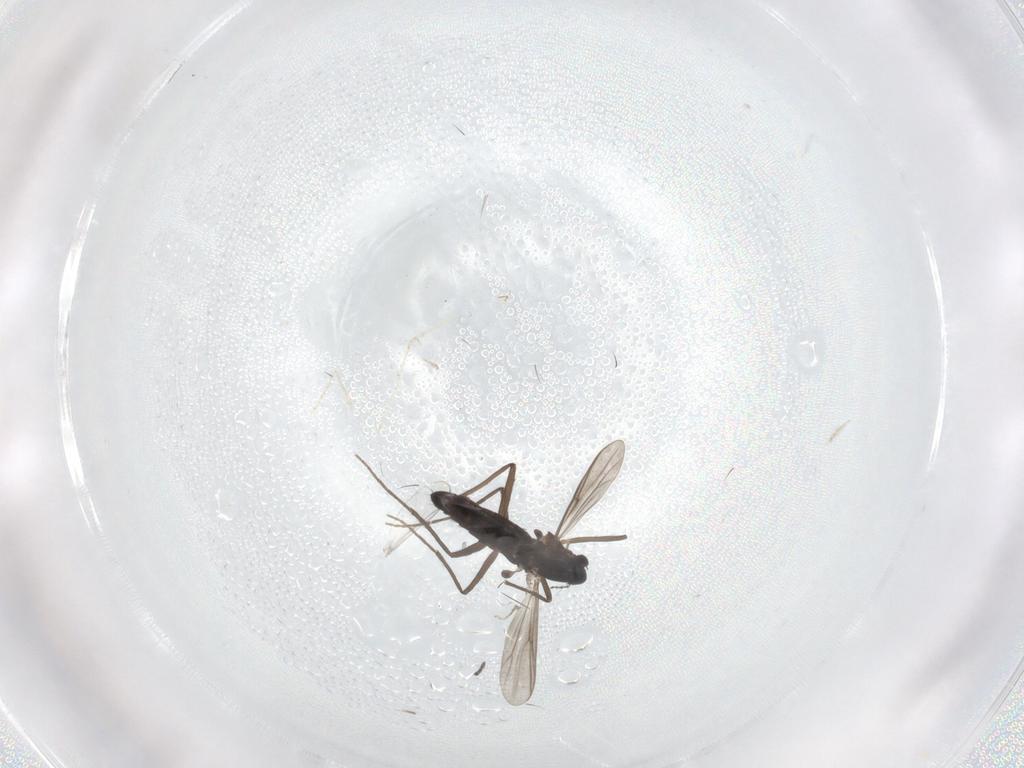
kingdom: Animalia
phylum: Arthropoda
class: Insecta
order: Diptera
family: Mycetophilidae
